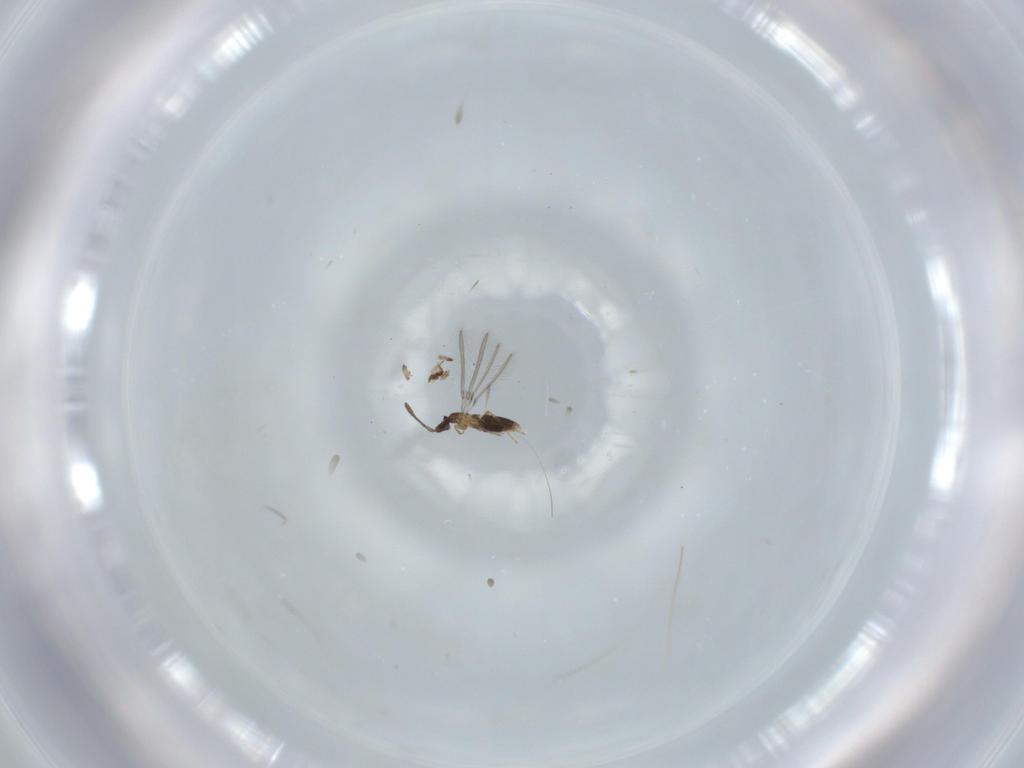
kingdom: Animalia
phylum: Arthropoda
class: Insecta
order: Hymenoptera
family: Mymaridae
